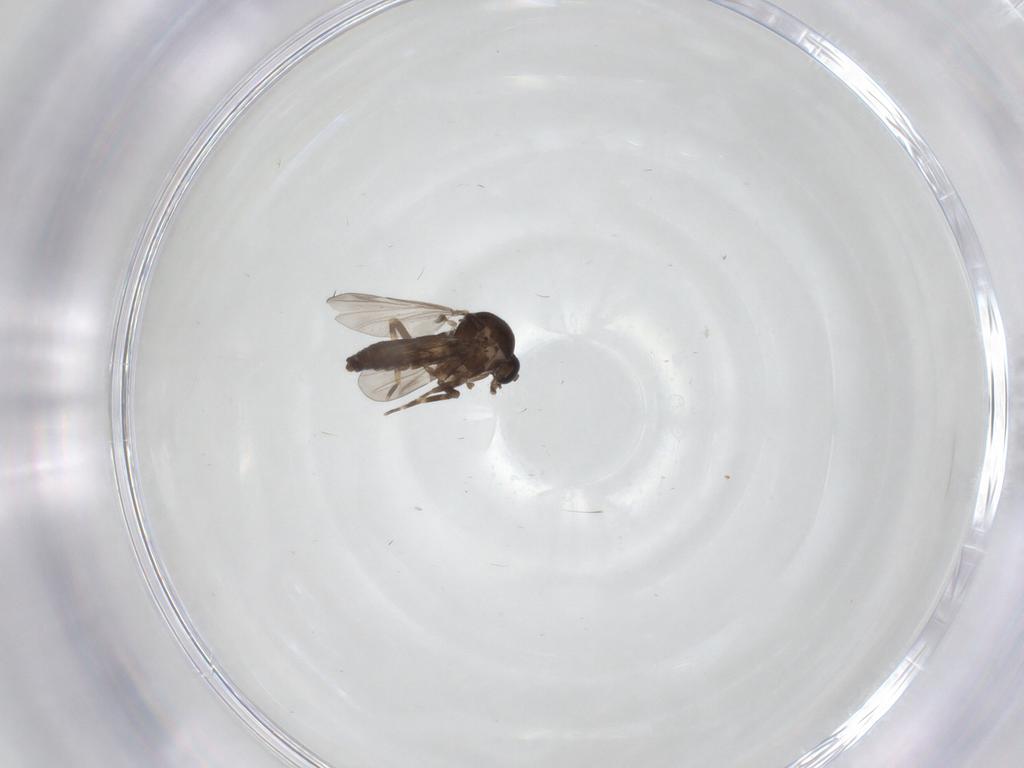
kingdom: Animalia
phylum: Arthropoda
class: Insecta
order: Diptera
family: Ceratopogonidae
